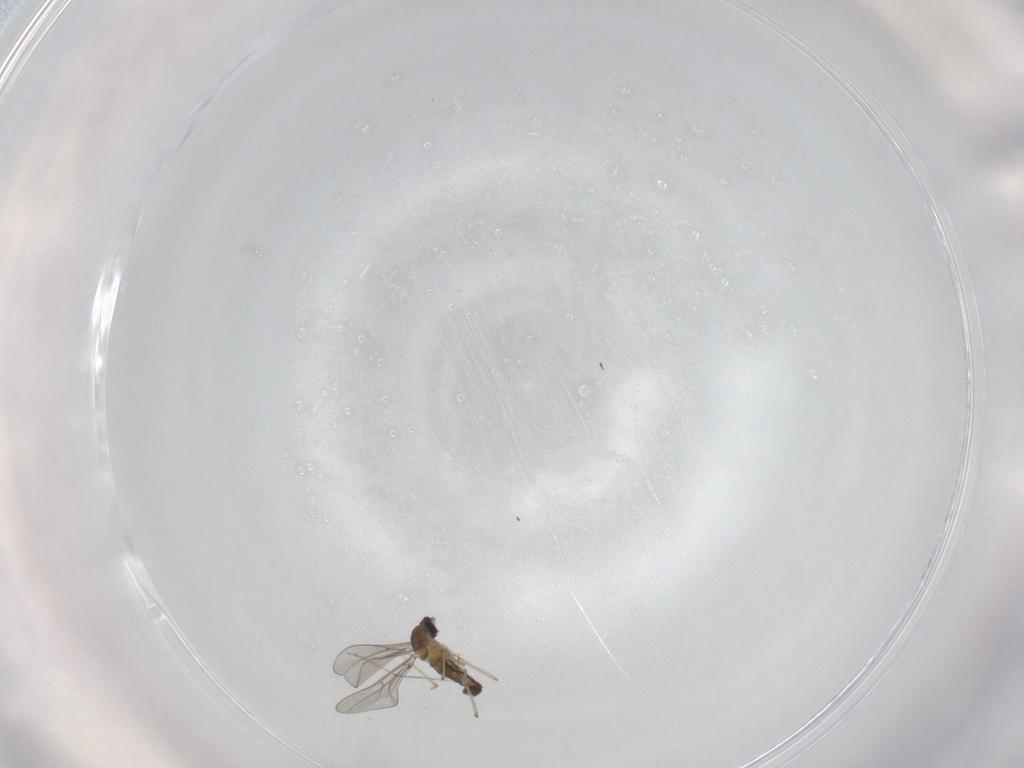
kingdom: Animalia
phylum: Arthropoda
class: Insecta
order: Diptera
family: Cecidomyiidae
